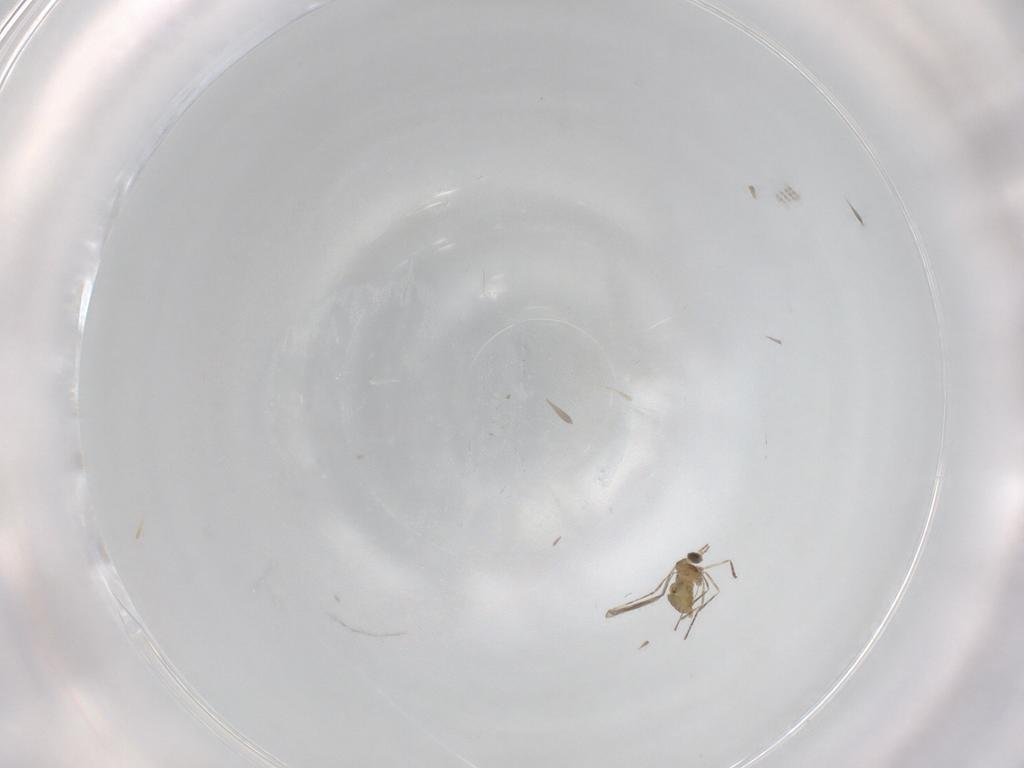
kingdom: Animalia
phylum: Arthropoda
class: Insecta
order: Diptera
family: Cecidomyiidae
